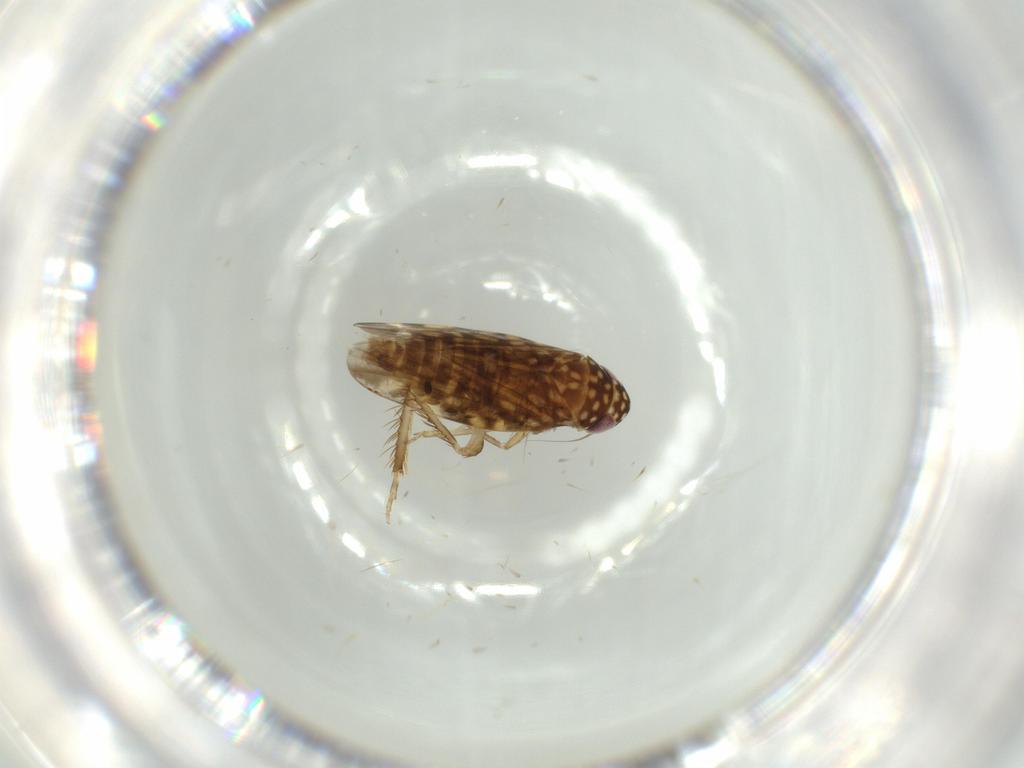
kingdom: Animalia
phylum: Arthropoda
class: Insecta
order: Hemiptera
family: Cicadellidae
